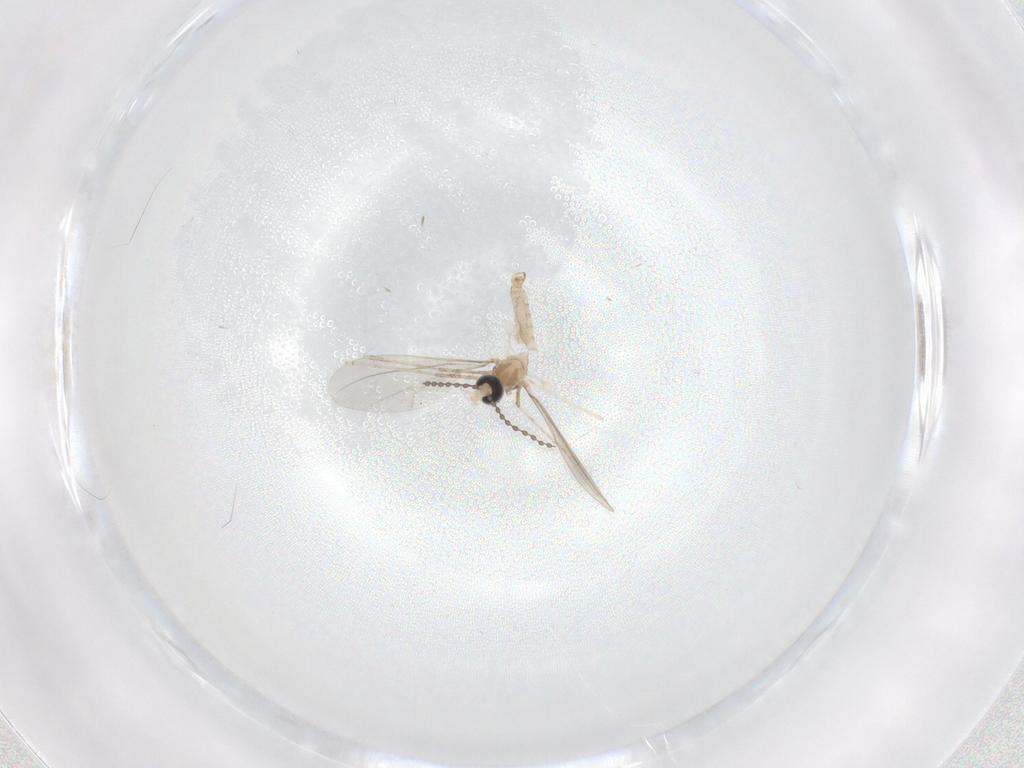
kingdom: Animalia
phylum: Arthropoda
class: Insecta
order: Diptera
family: Cecidomyiidae
